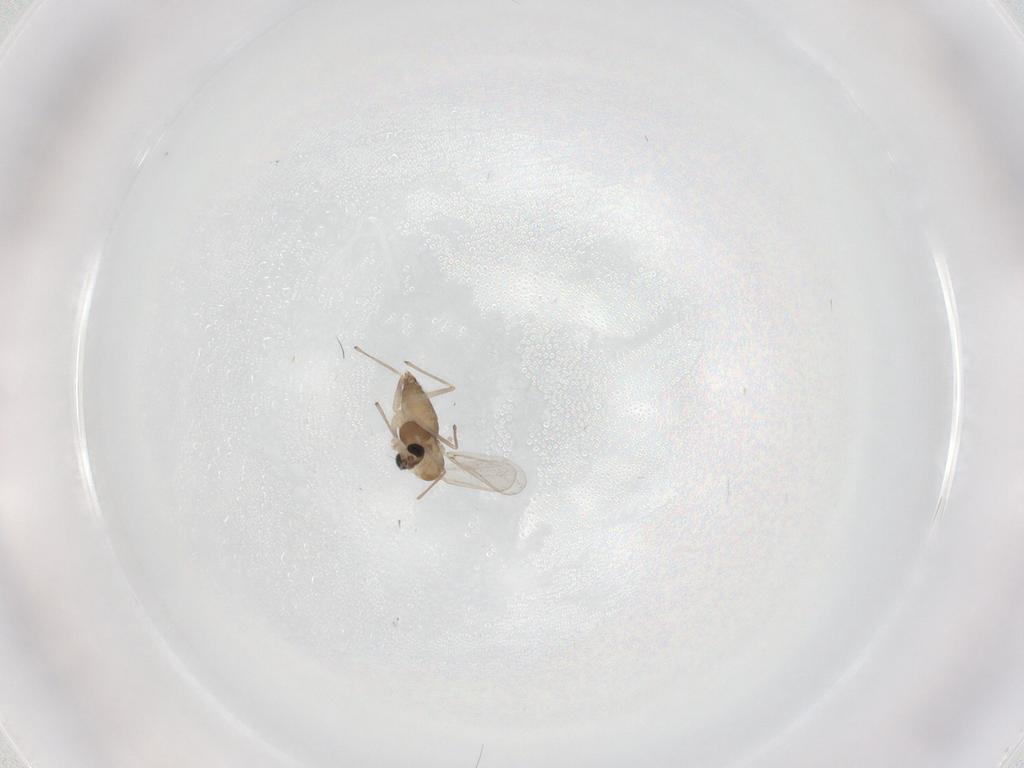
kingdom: Animalia
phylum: Arthropoda
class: Insecta
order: Diptera
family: Chironomidae
